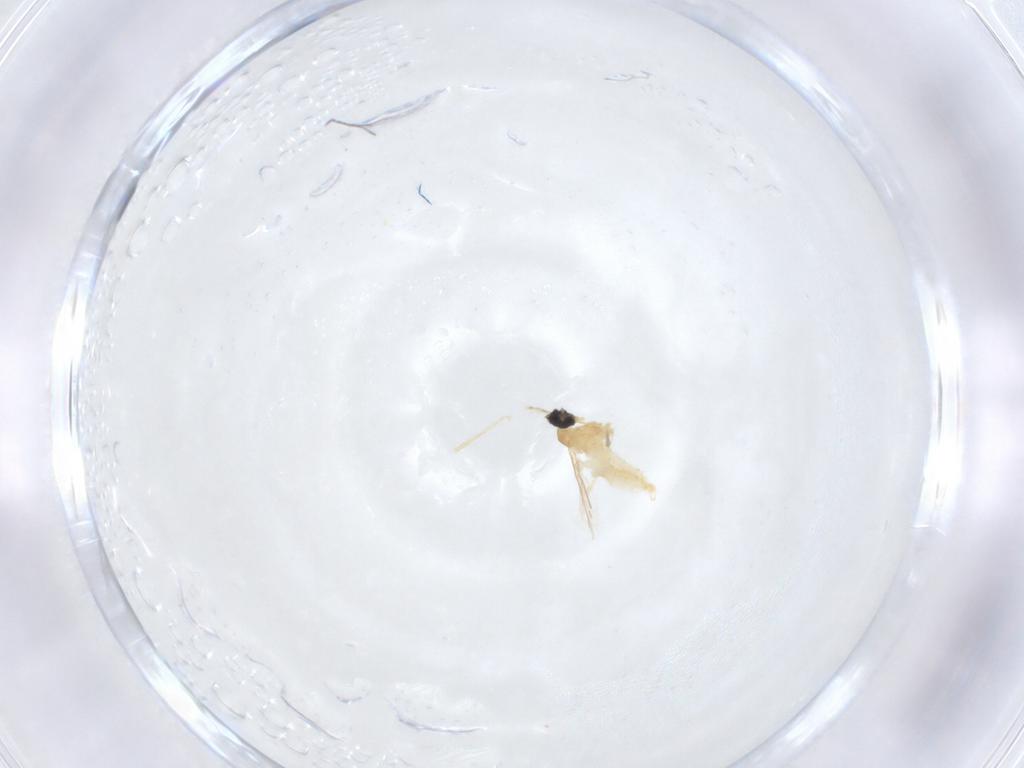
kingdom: Animalia
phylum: Arthropoda
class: Insecta
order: Diptera
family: Cecidomyiidae
